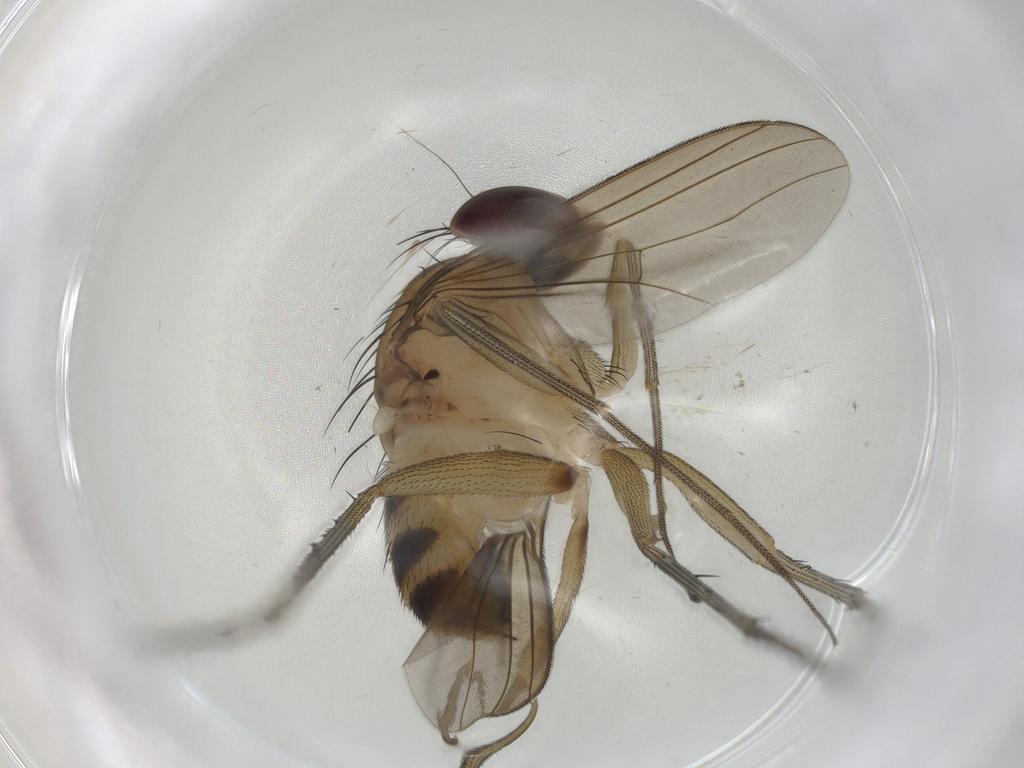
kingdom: Animalia
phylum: Arthropoda
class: Insecta
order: Diptera
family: Dolichopodidae
